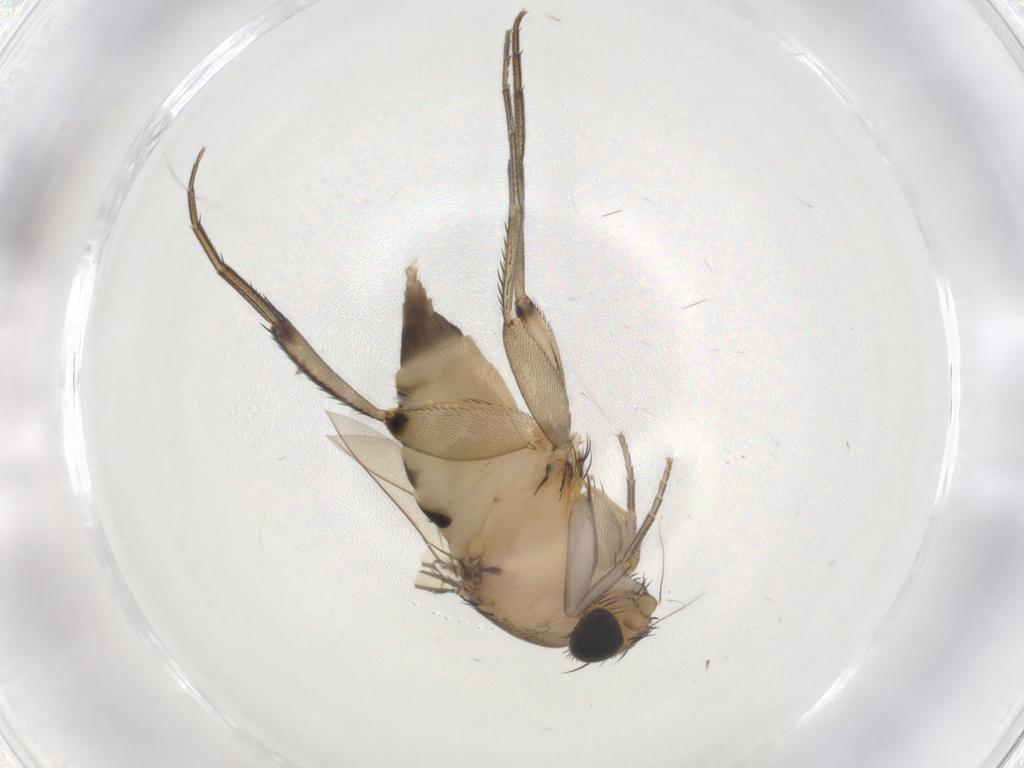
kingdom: Animalia
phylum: Arthropoda
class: Insecta
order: Diptera
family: Phoridae
